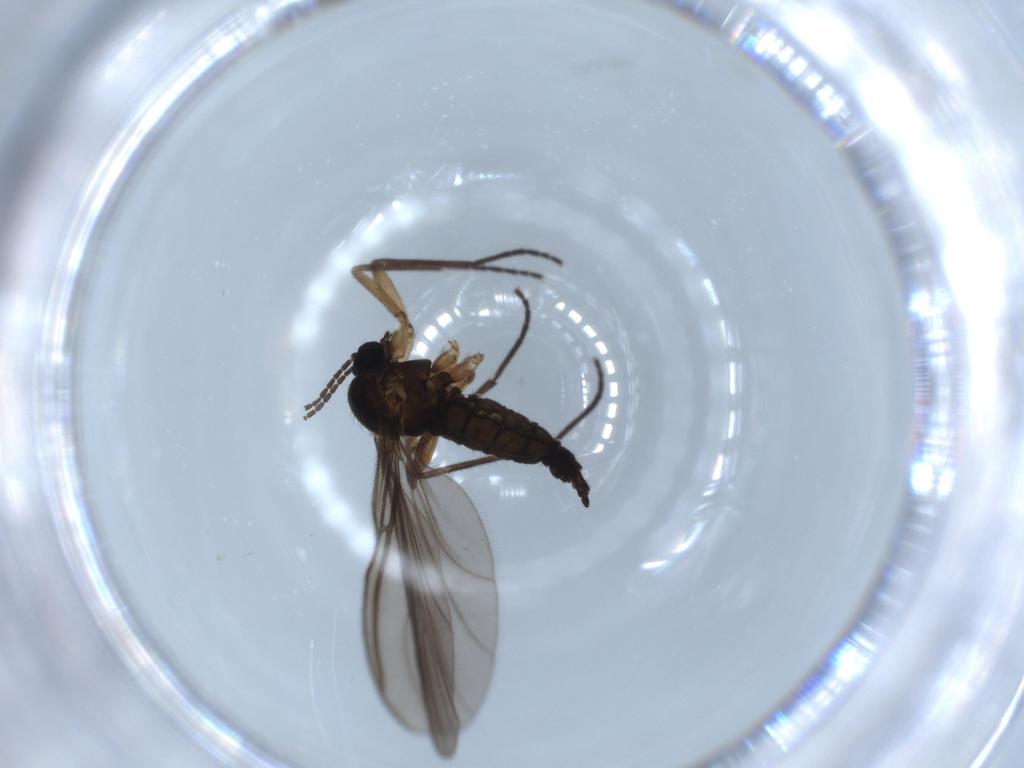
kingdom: Animalia
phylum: Arthropoda
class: Insecta
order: Diptera
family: Sciaridae
